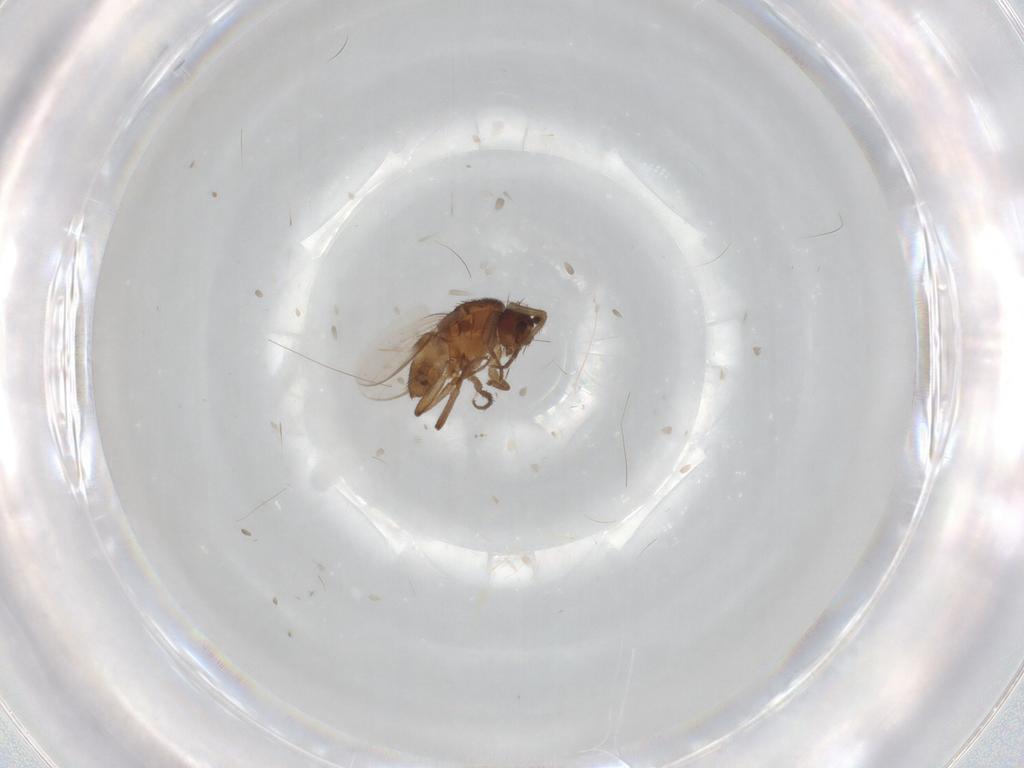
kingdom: Animalia
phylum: Arthropoda
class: Insecta
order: Diptera
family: Sphaeroceridae
